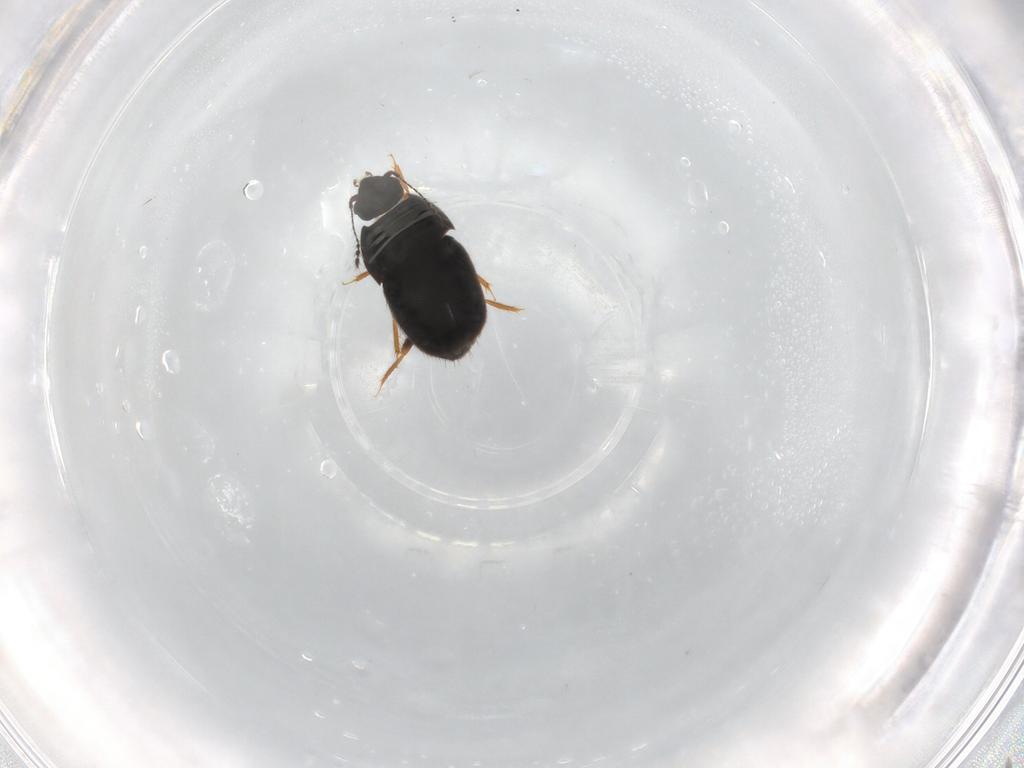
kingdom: Animalia
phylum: Arthropoda
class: Insecta
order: Coleoptera
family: Ptiliidae
